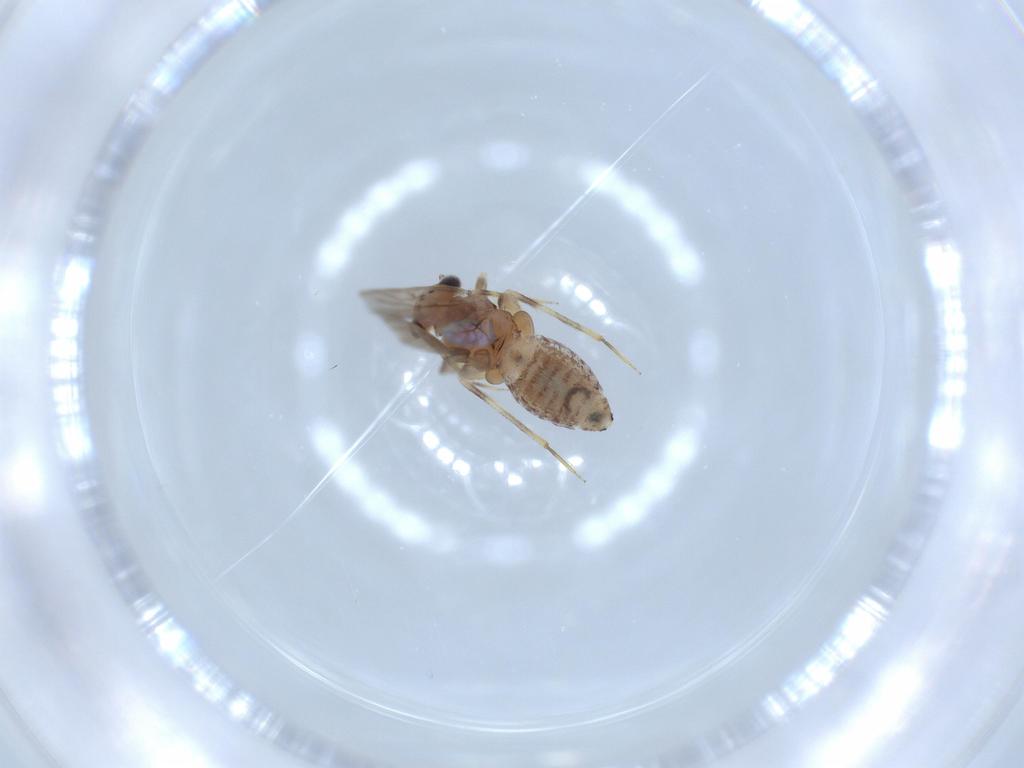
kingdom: Animalia
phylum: Arthropoda
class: Insecta
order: Psocodea
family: Lepidopsocidae
